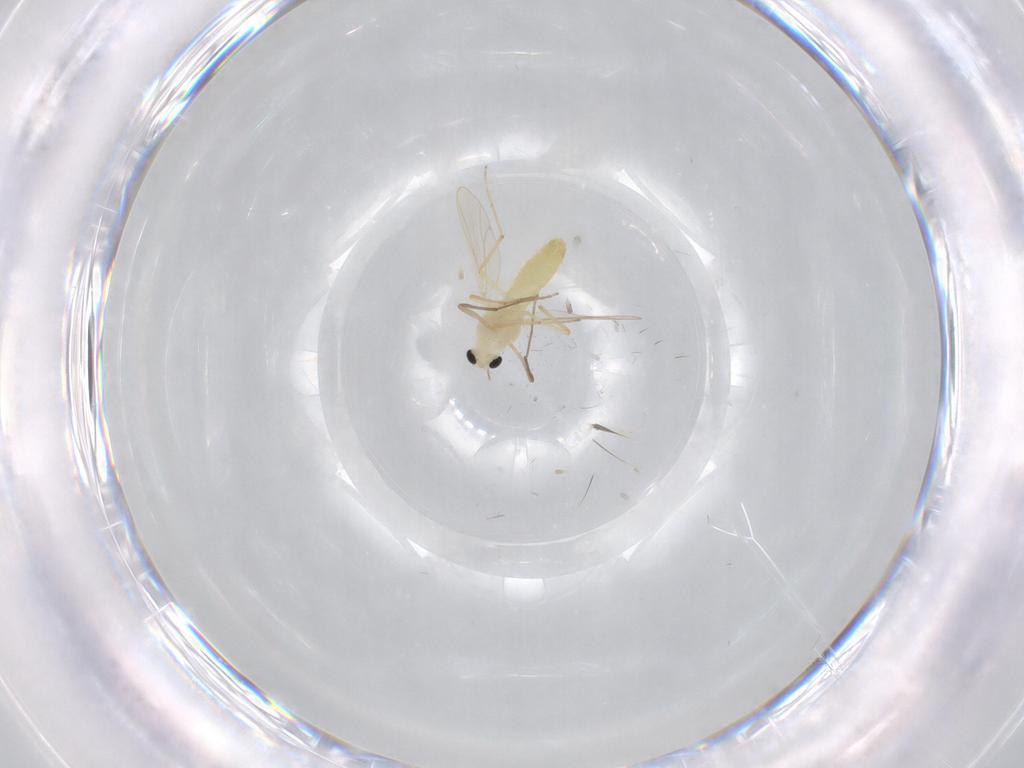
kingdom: Animalia
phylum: Arthropoda
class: Insecta
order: Diptera
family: Chironomidae
